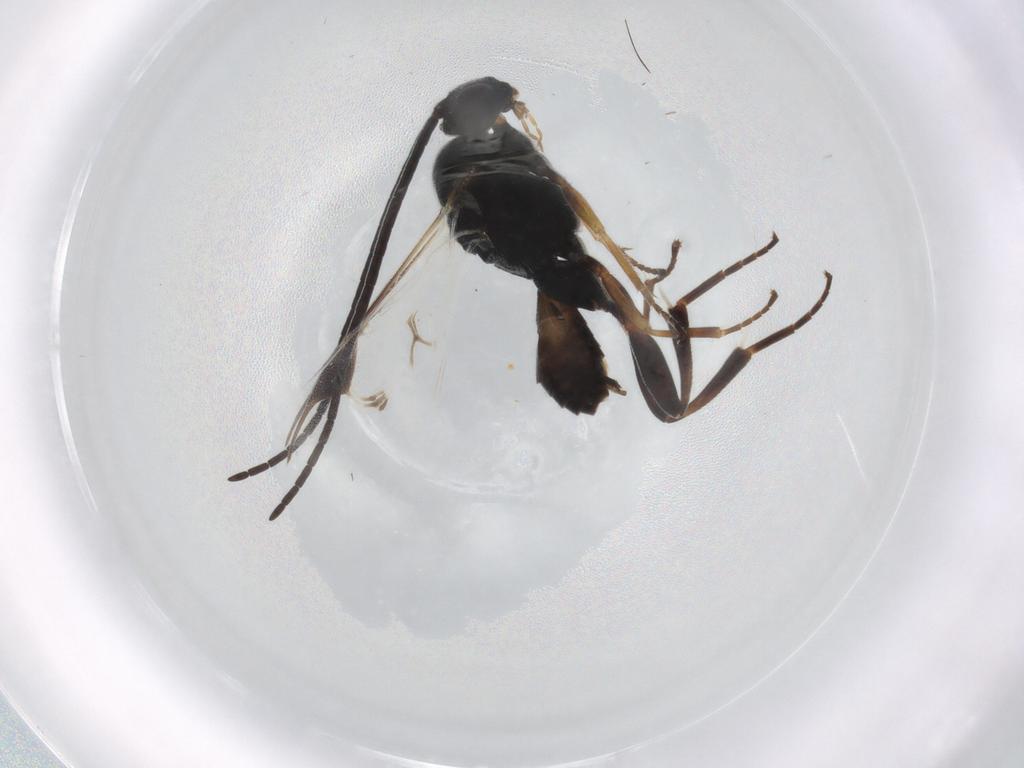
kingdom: Animalia
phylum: Arthropoda
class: Insecta
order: Hymenoptera
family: Braconidae
